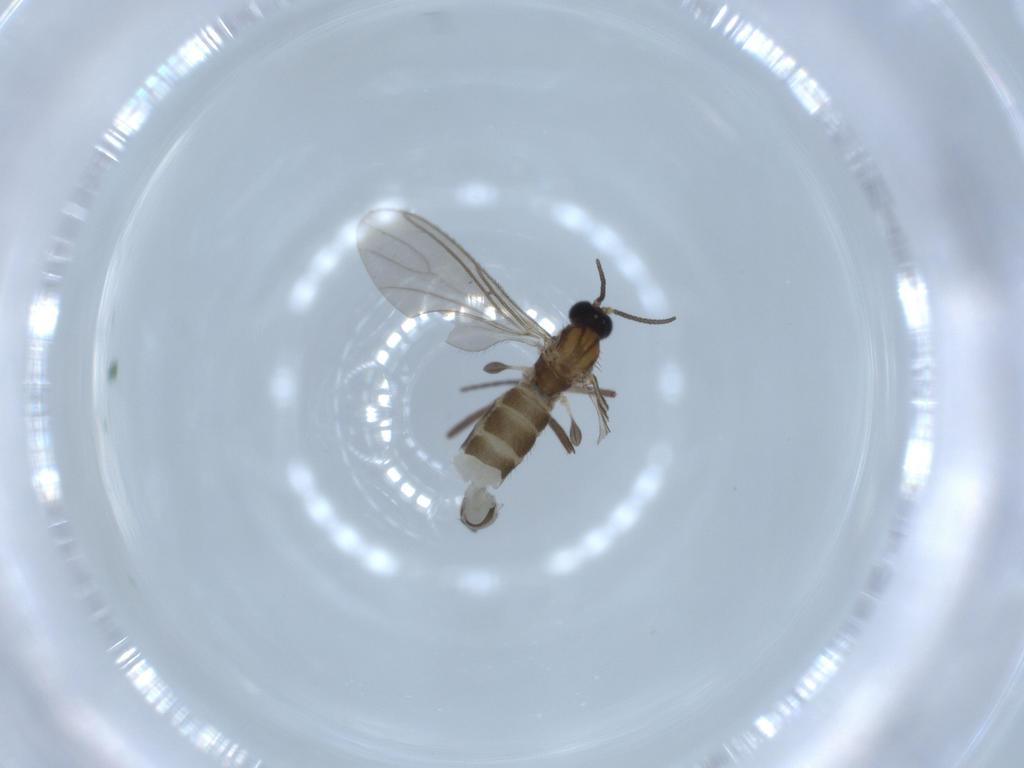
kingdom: Animalia
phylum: Arthropoda
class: Insecta
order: Diptera
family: Sciaridae
